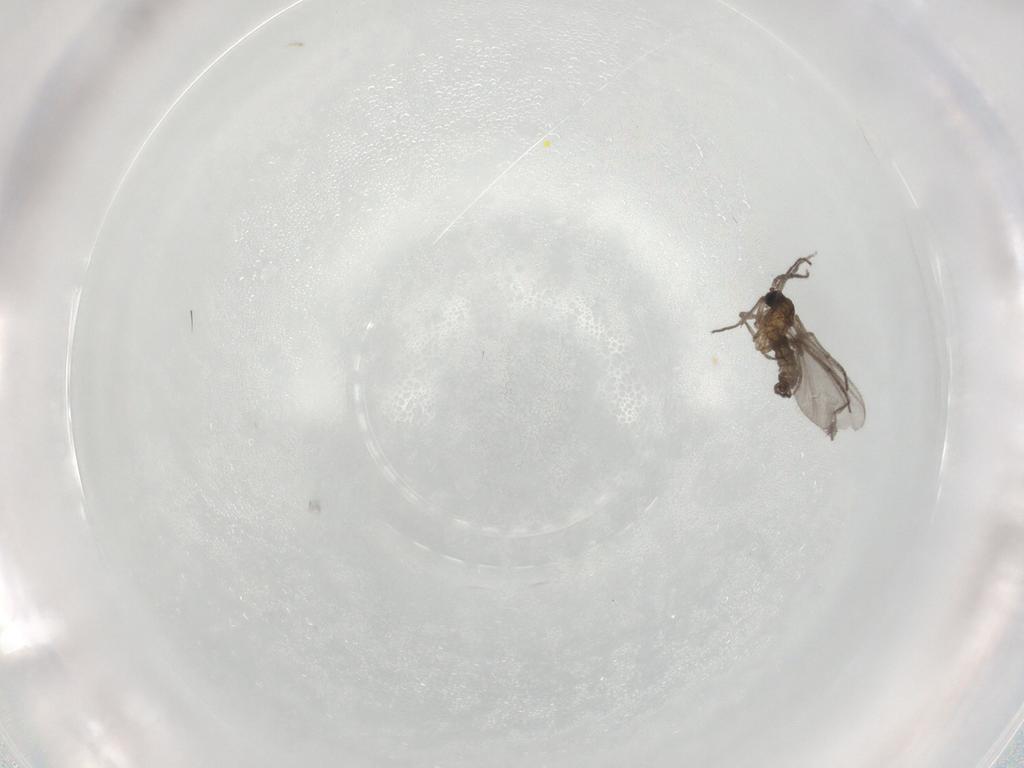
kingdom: Animalia
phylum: Arthropoda
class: Insecta
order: Diptera
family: Sciaridae
